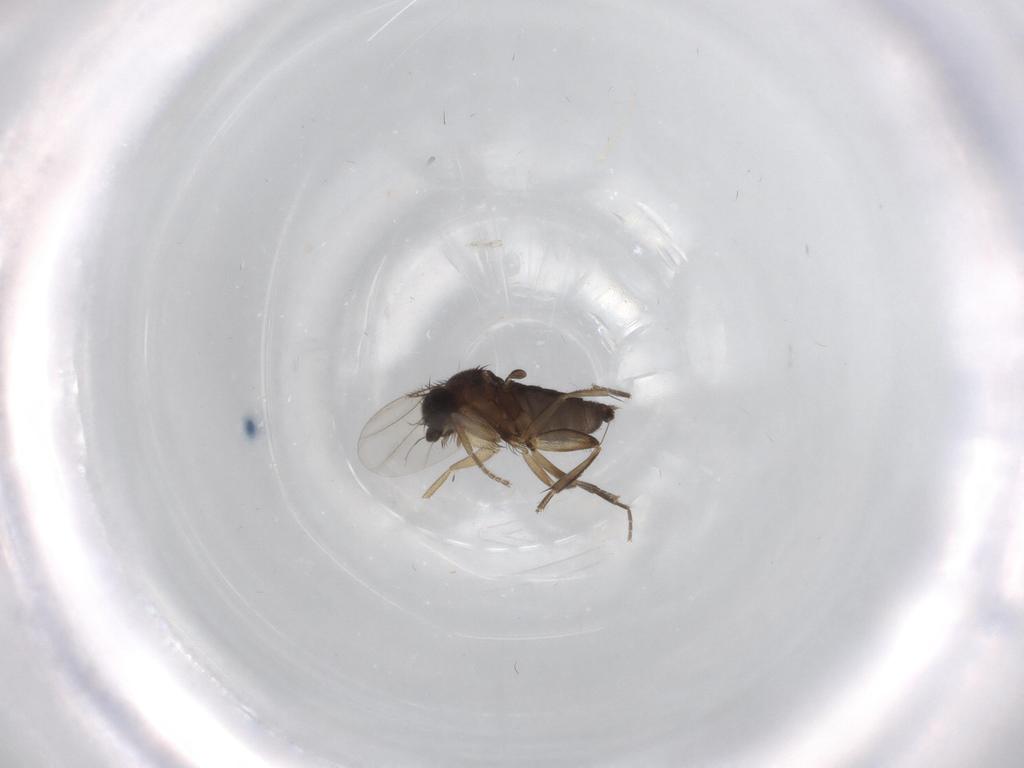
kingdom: Animalia
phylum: Arthropoda
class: Insecta
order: Diptera
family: Phoridae
